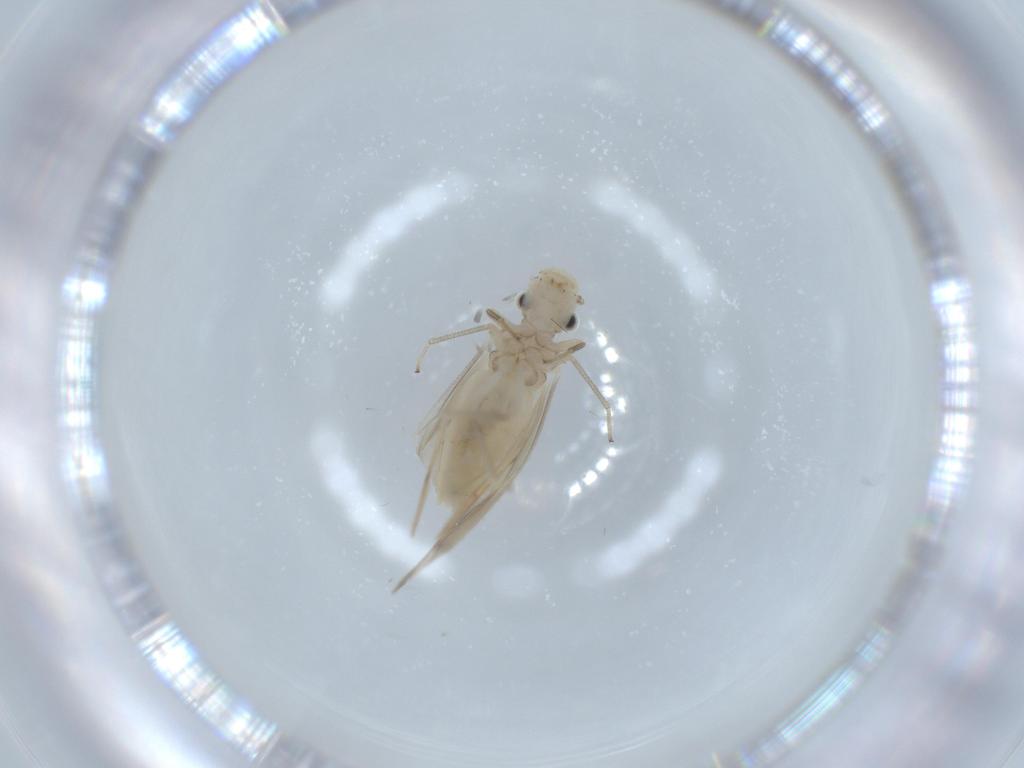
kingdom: Animalia
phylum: Arthropoda
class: Insecta
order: Psocodea
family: Caeciliusidae
